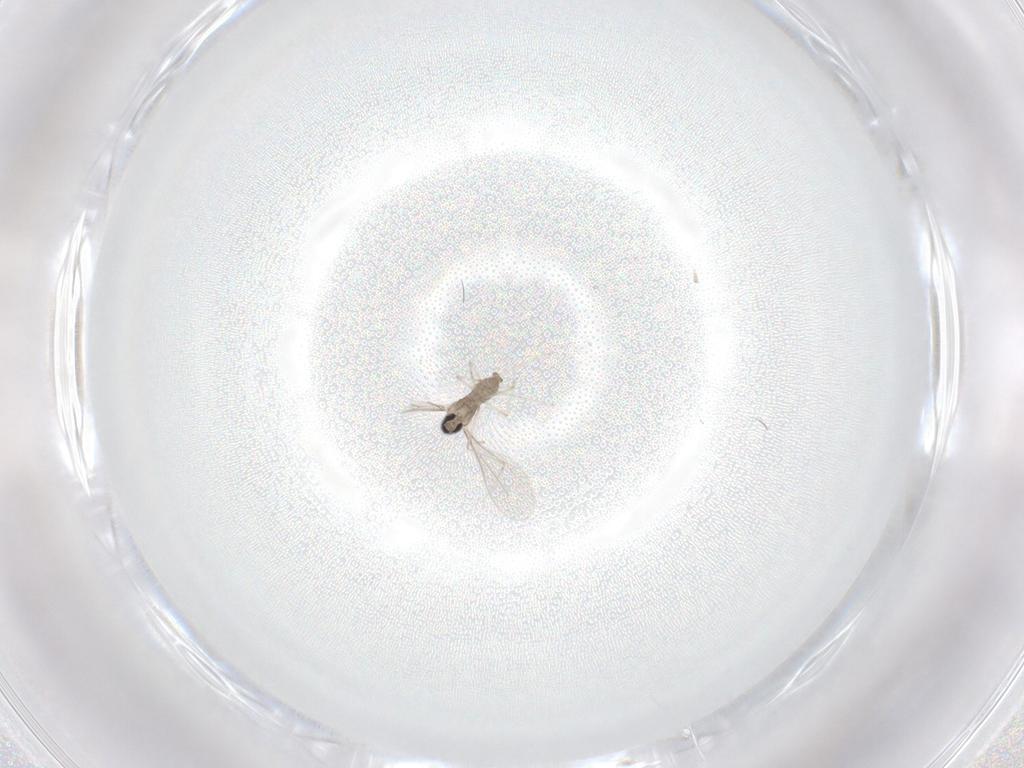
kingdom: Animalia
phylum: Arthropoda
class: Insecta
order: Diptera
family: Cecidomyiidae
